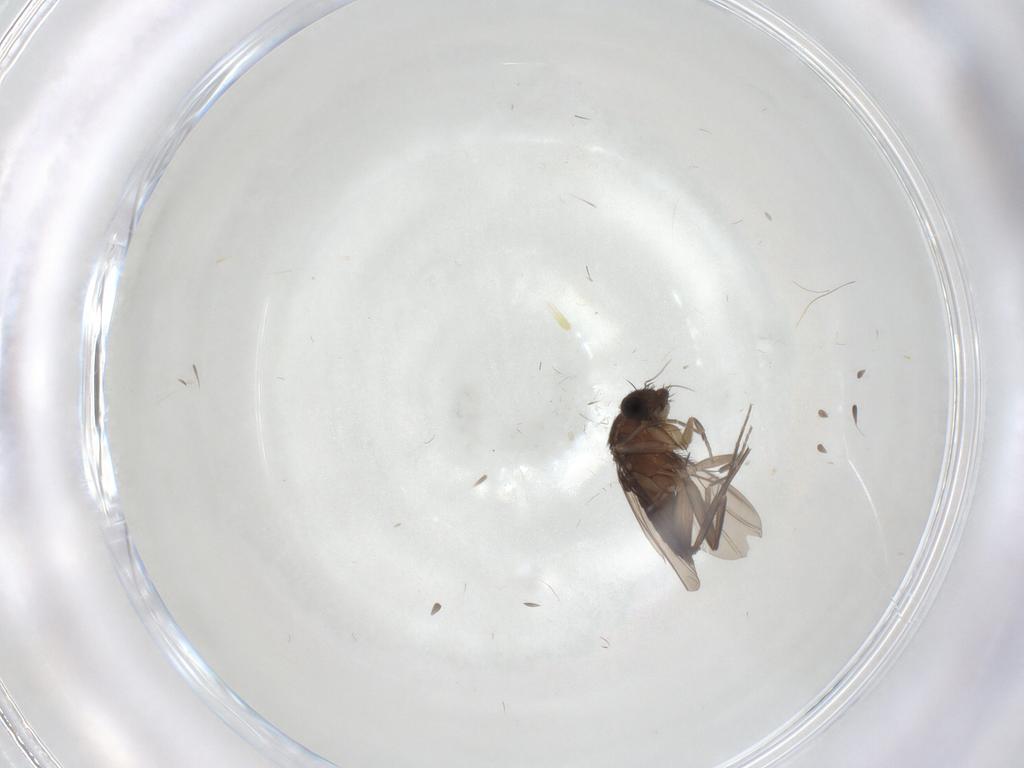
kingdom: Animalia
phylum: Arthropoda
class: Insecta
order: Diptera
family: Phoridae
